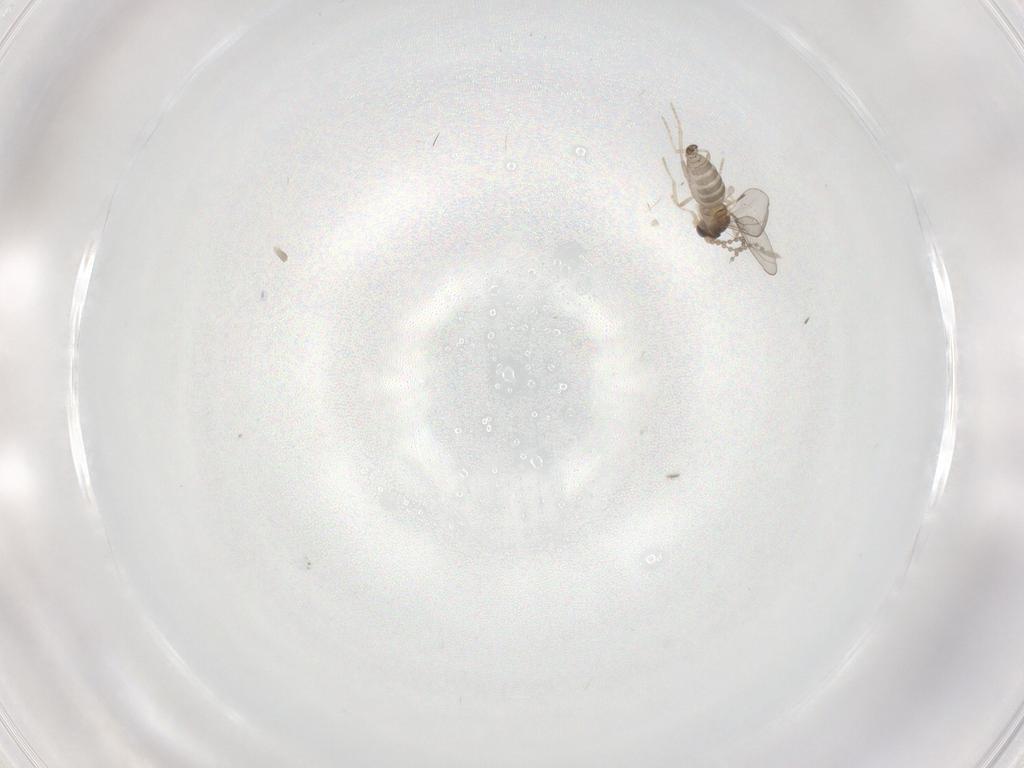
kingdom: Animalia
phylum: Arthropoda
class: Insecta
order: Diptera
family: Cecidomyiidae
